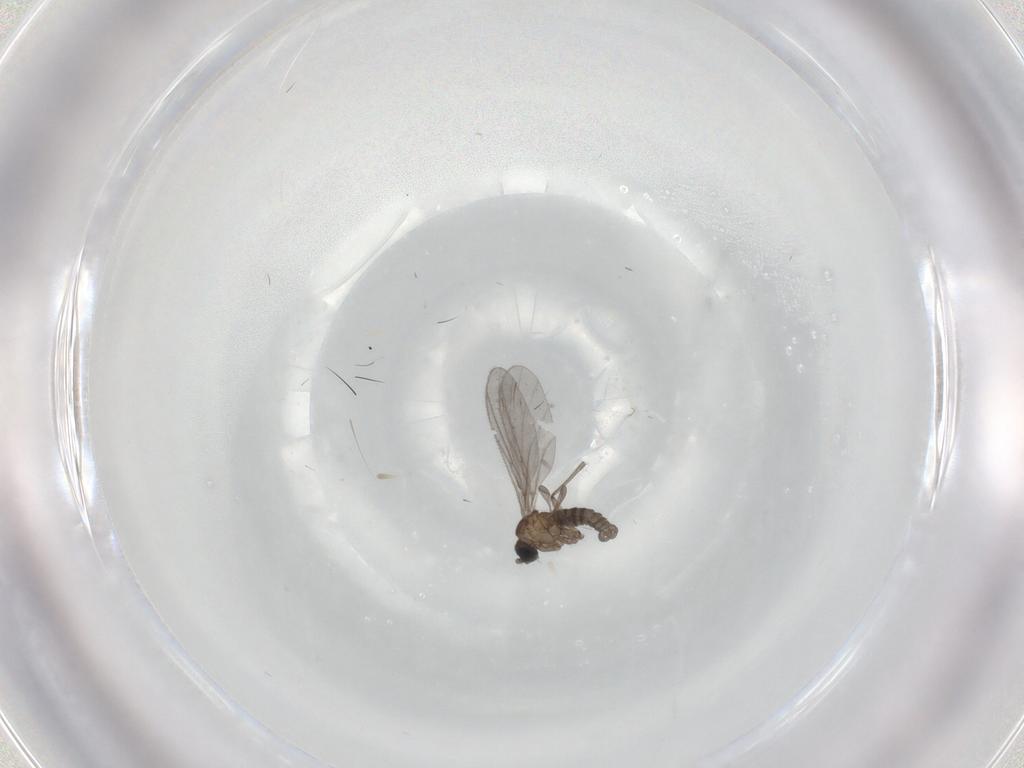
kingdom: Animalia
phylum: Arthropoda
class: Insecta
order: Diptera
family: Sciaridae
